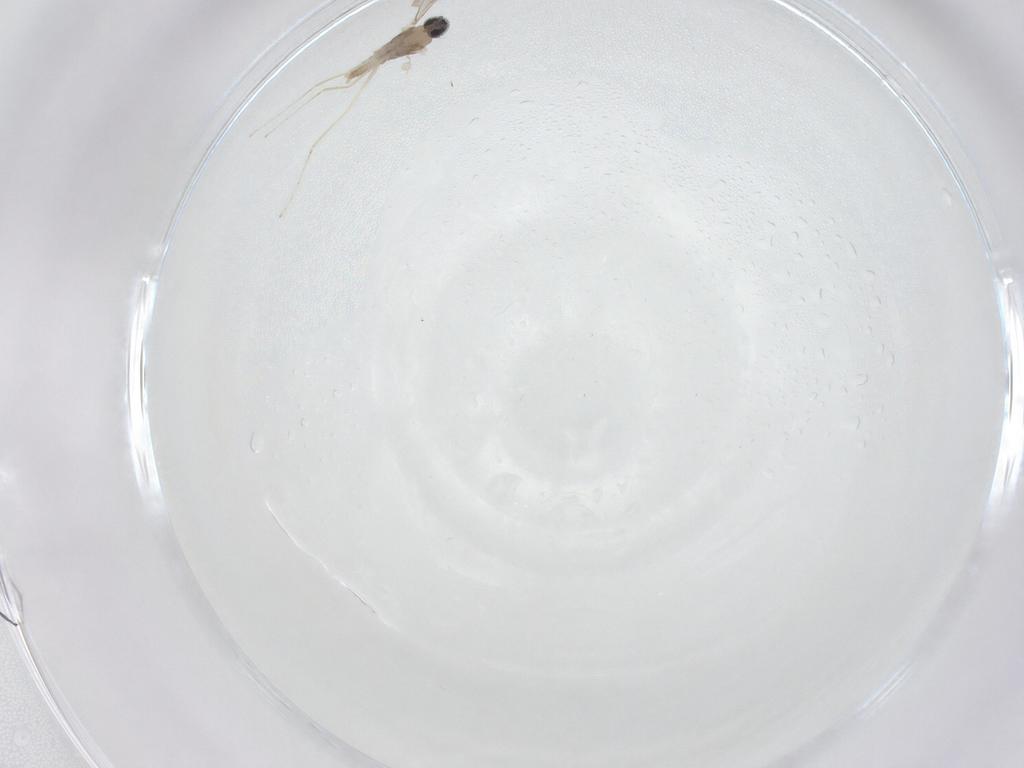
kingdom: Animalia
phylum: Arthropoda
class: Insecta
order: Diptera
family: Cecidomyiidae
